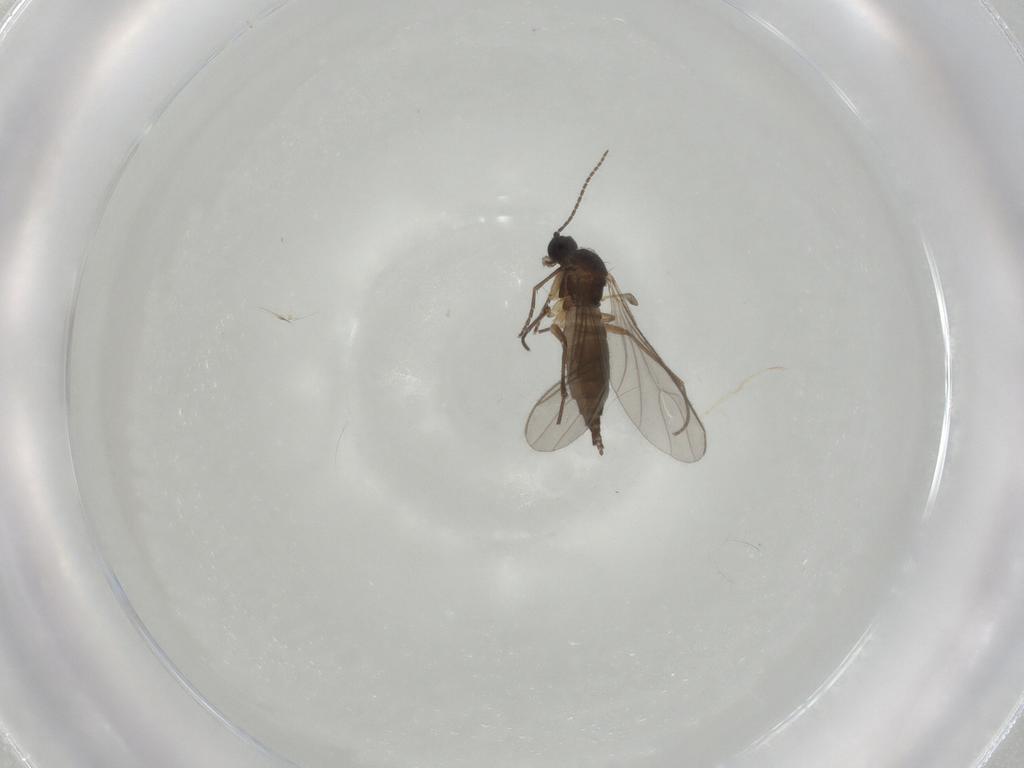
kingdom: Animalia
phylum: Arthropoda
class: Insecta
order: Diptera
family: Sciaridae
